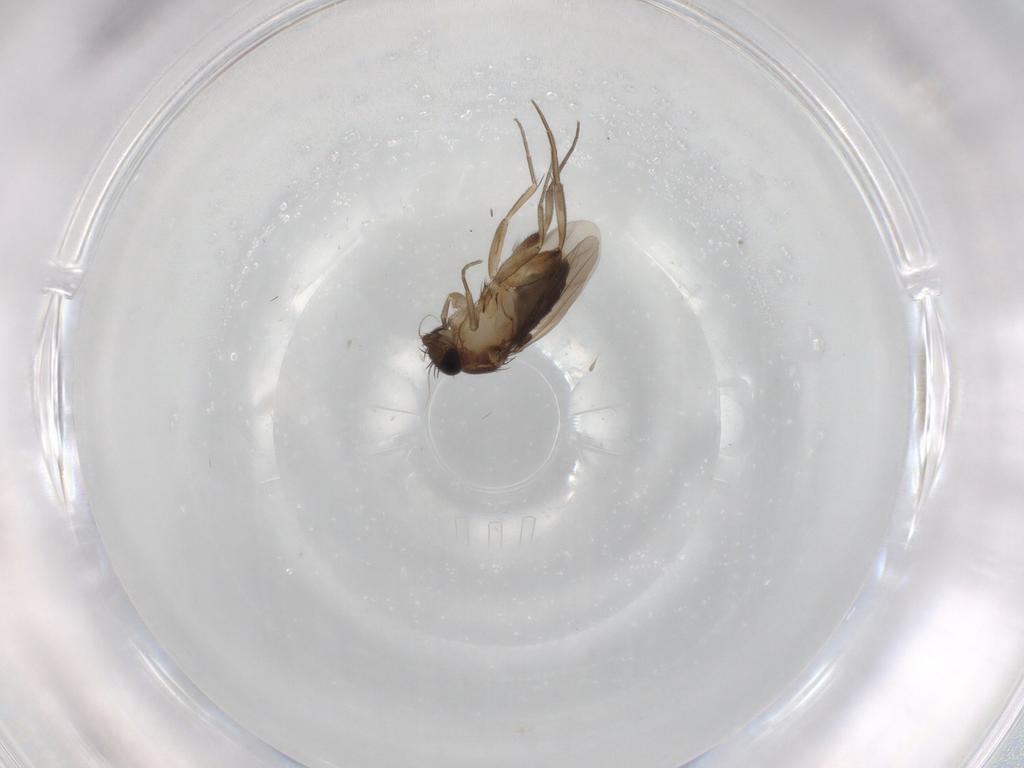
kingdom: Animalia
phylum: Arthropoda
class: Insecta
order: Diptera
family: Phoridae
